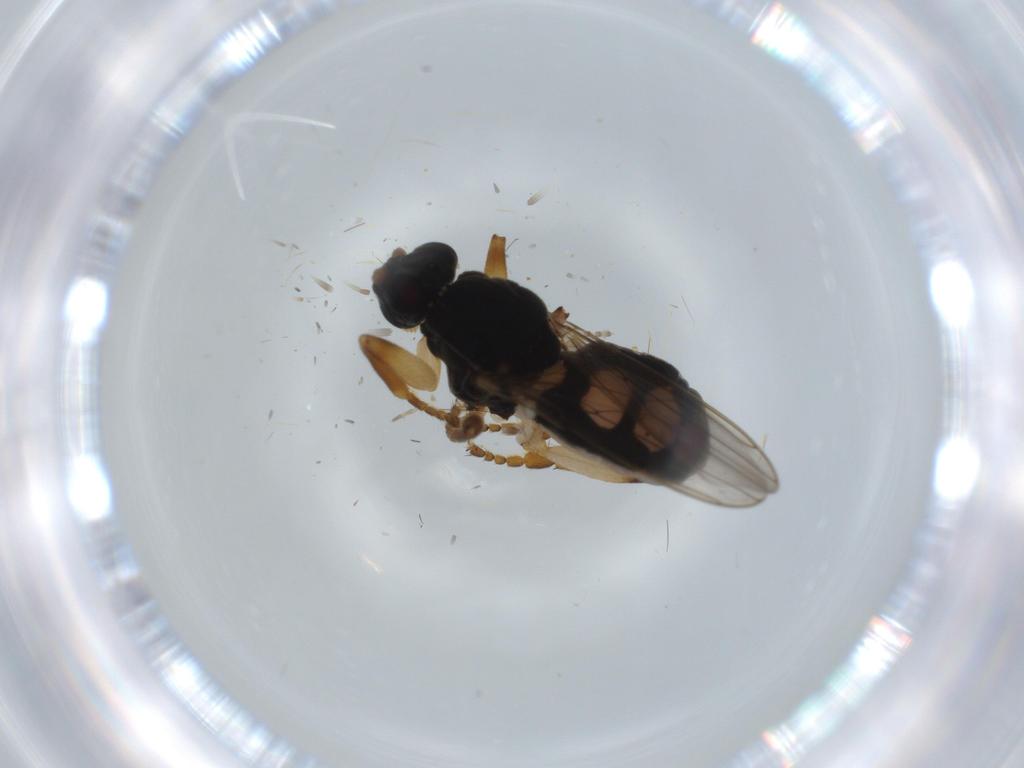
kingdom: Animalia
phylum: Arthropoda
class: Insecta
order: Diptera
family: Sphaeroceridae
